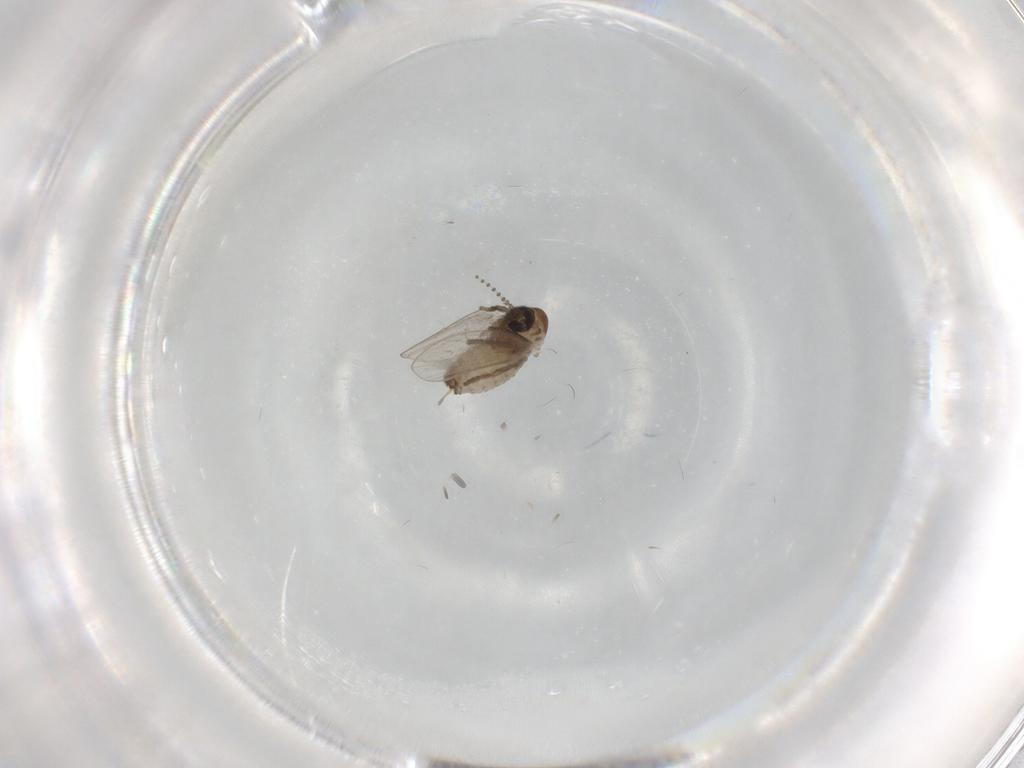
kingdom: Animalia
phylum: Arthropoda
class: Insecta
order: Diptera
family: Psychodidae
